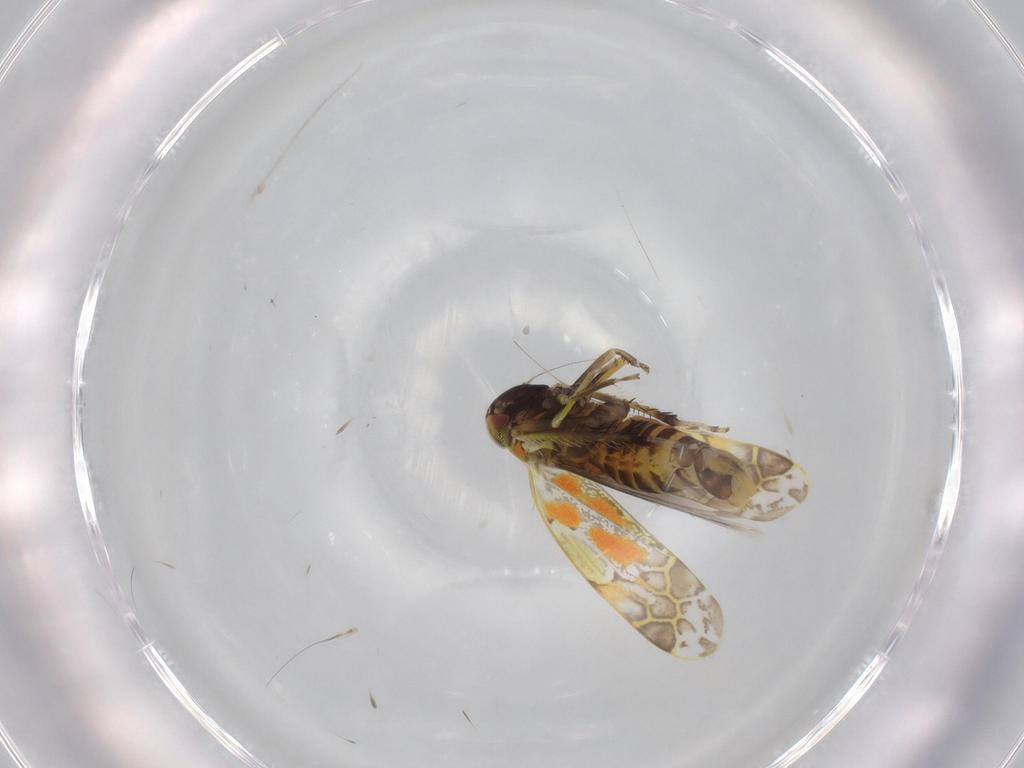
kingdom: Animalia
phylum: Arthropoda
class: Insecta
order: Hemiptera
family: Cicadellidae
